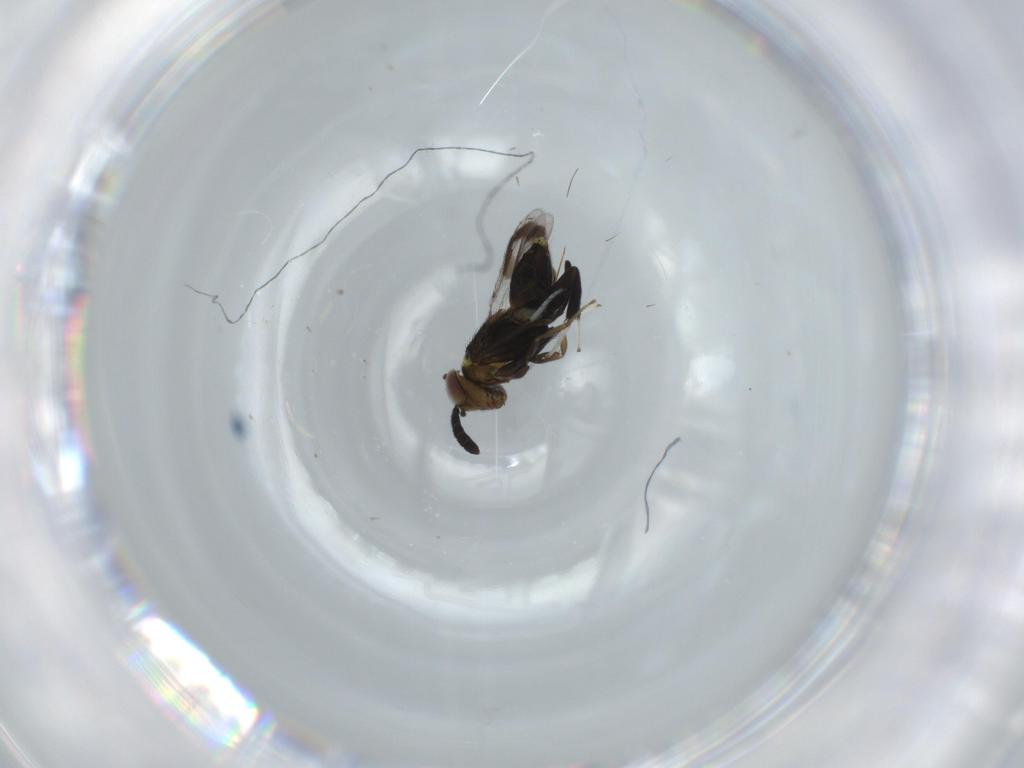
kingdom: Animalia
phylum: Arthropoda
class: Insecta
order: Hymenoptera
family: Aphelinidae
